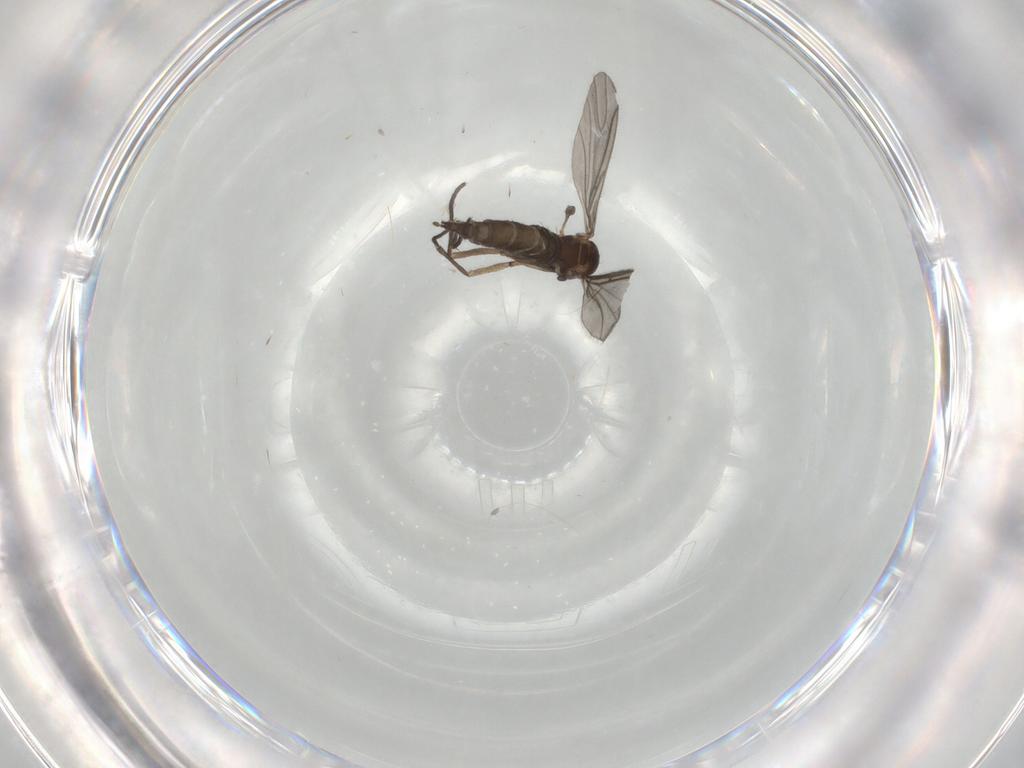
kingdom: Animalia
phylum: Arthropoda
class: Insecta
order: Diptera
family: Sciaridae
